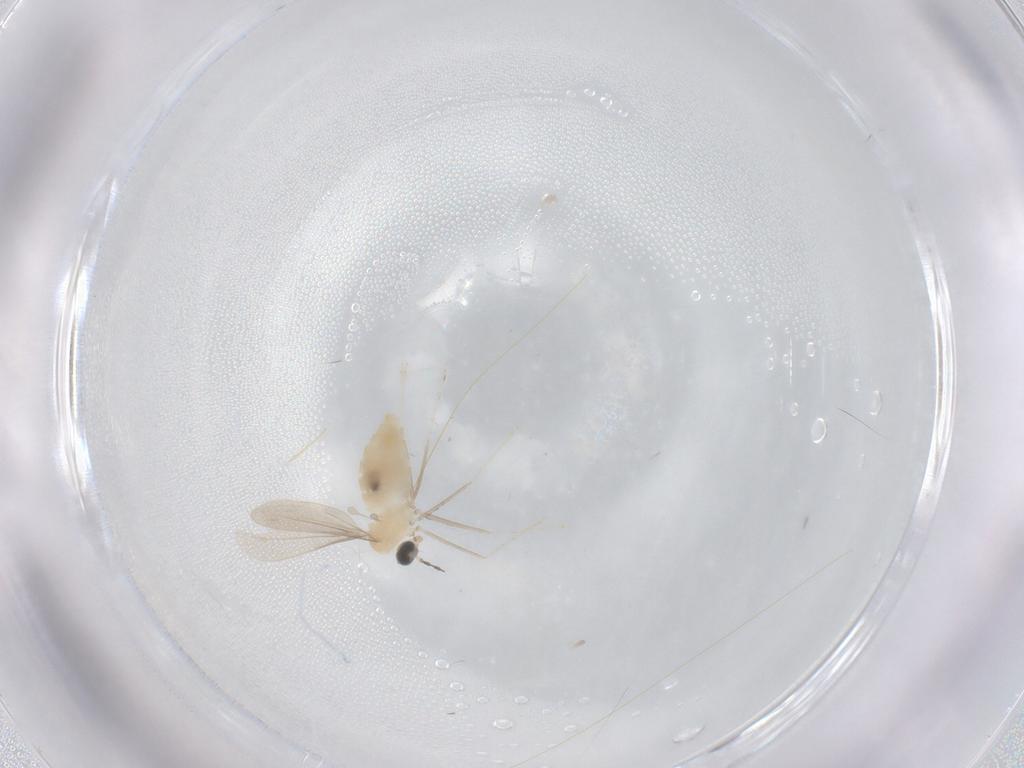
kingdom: Animalia
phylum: Arthropoda
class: Insecta
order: Diptera
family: Cecidomyiidae
